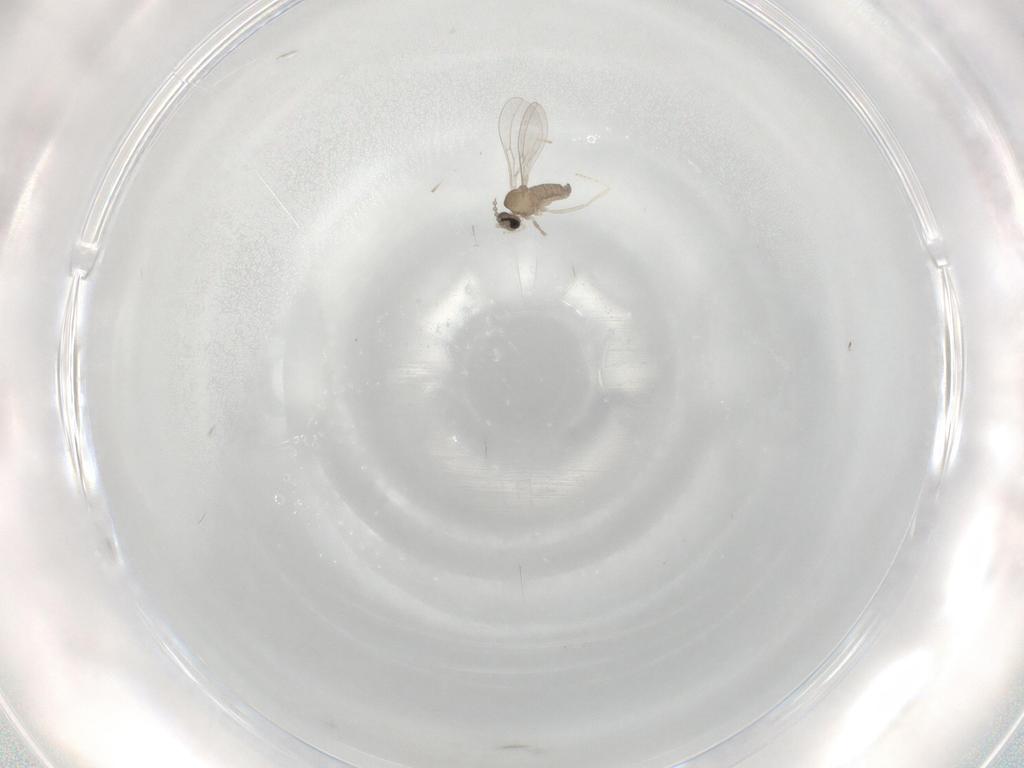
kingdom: Animalia
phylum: Arthropoda
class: Insecta
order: Diptera
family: Cecidomyiidae
